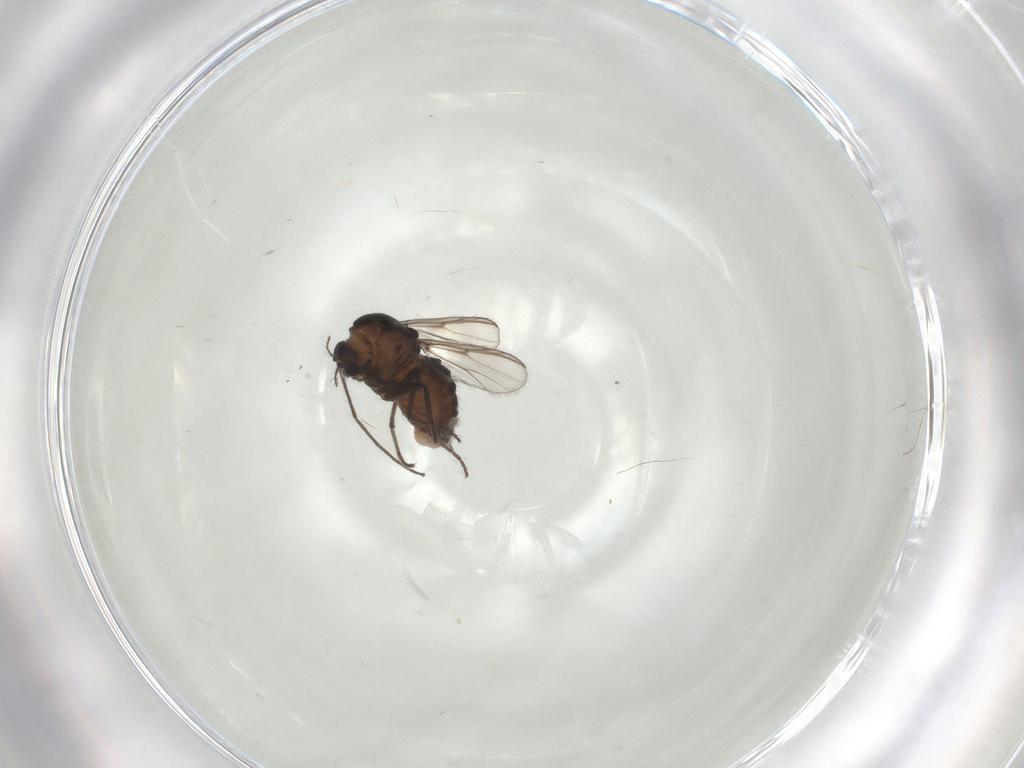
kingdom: Animalia
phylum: Arthropoda
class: Insecta
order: Diptera
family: Chironomidae
